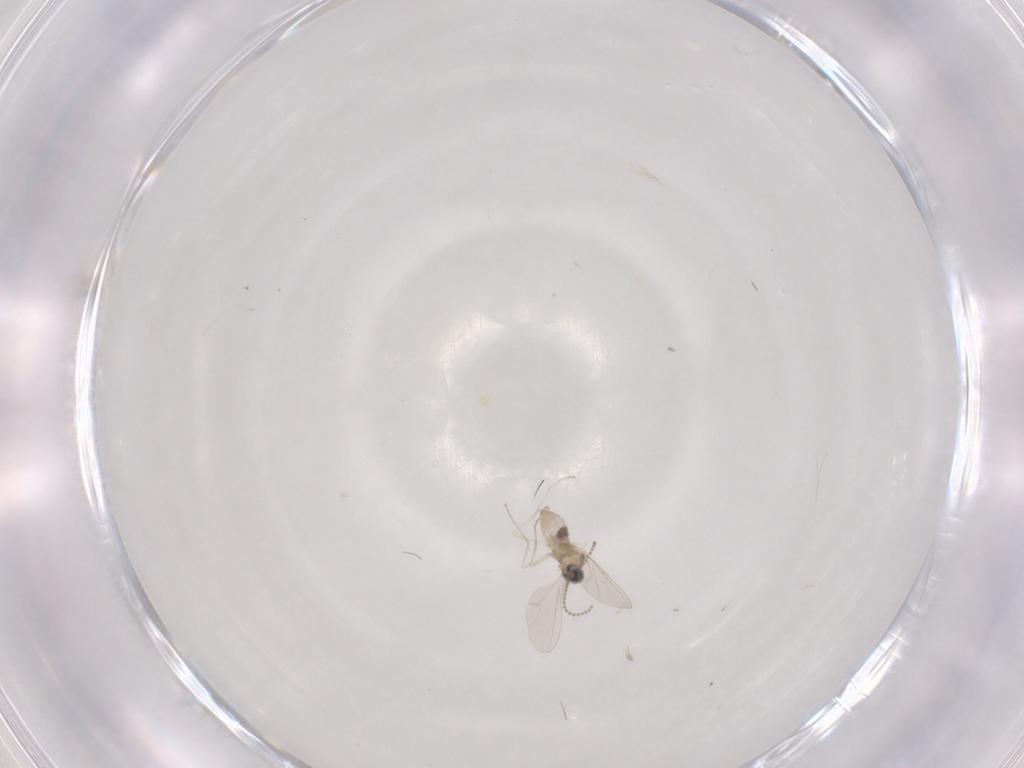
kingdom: Animalia
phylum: Arthropoda
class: Insecta
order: Diptera
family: Ceratopogonidae
